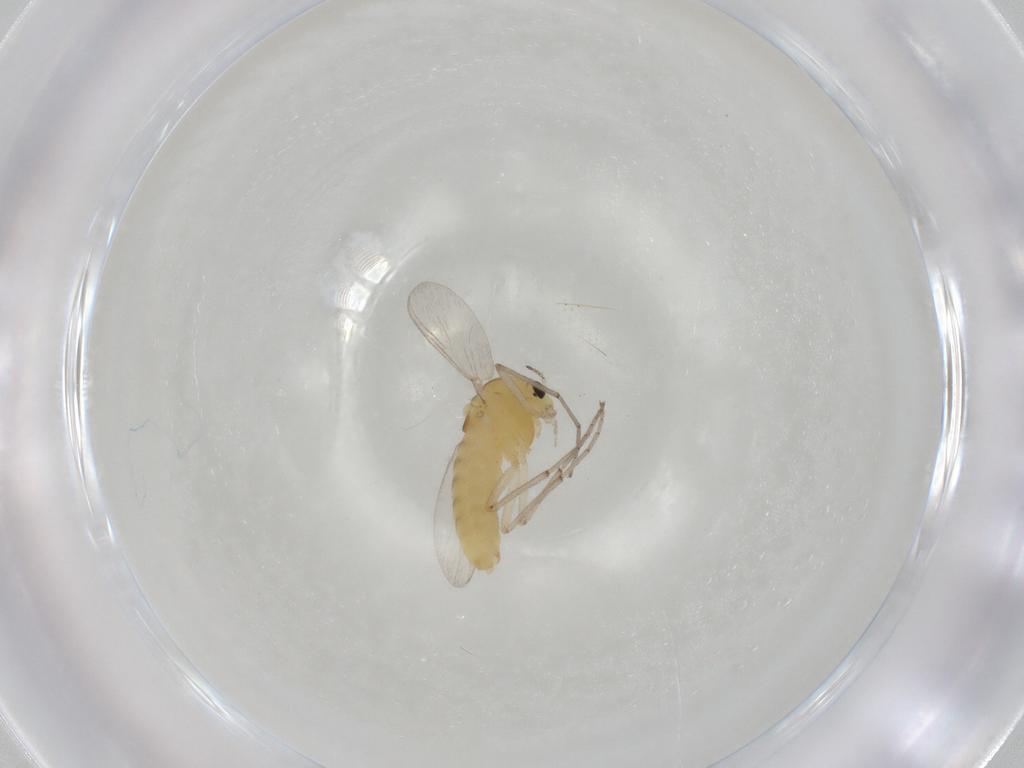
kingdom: Animalia
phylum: Arthropoda
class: Insecta
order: Diptera
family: Chironomidae
